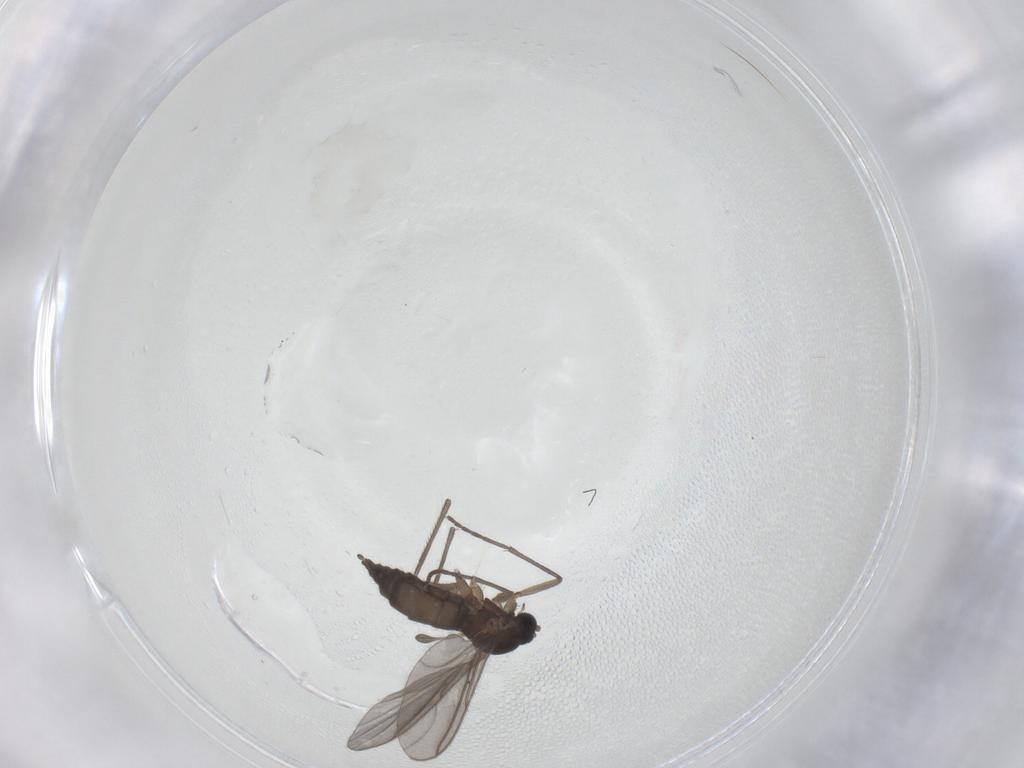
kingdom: Animalia
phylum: Arthropoda
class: Insecta
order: Diptera
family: Sciaridae
